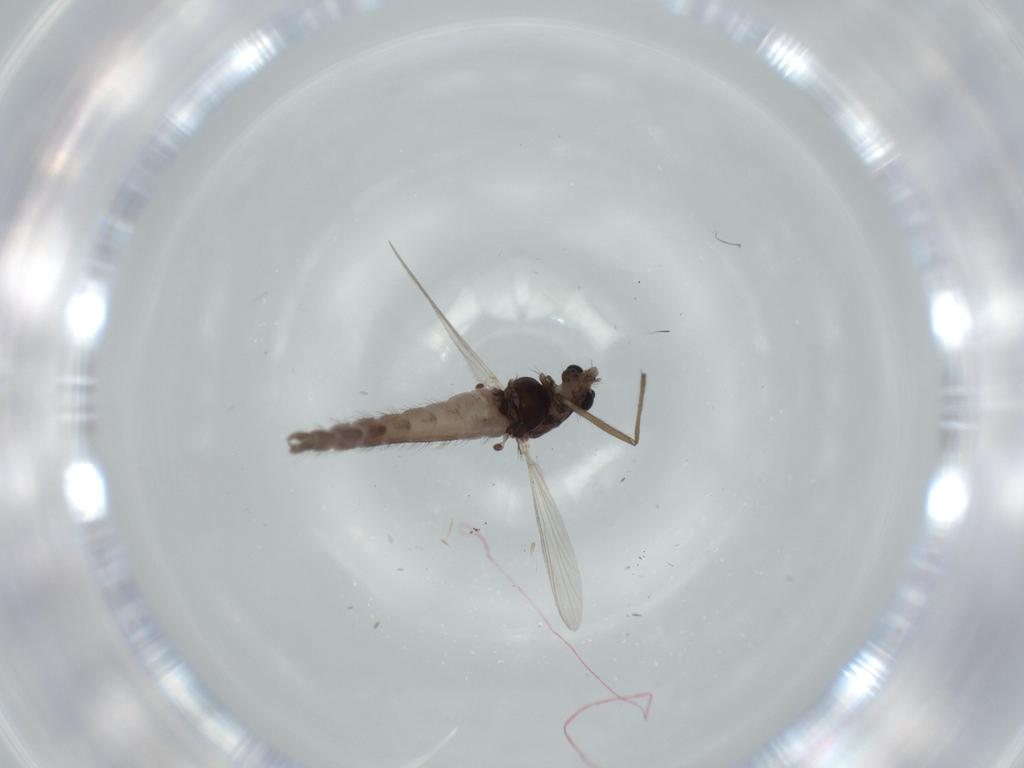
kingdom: Animalia
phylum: Arthropoda
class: Insecta
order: Diptera
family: Chironomidae
